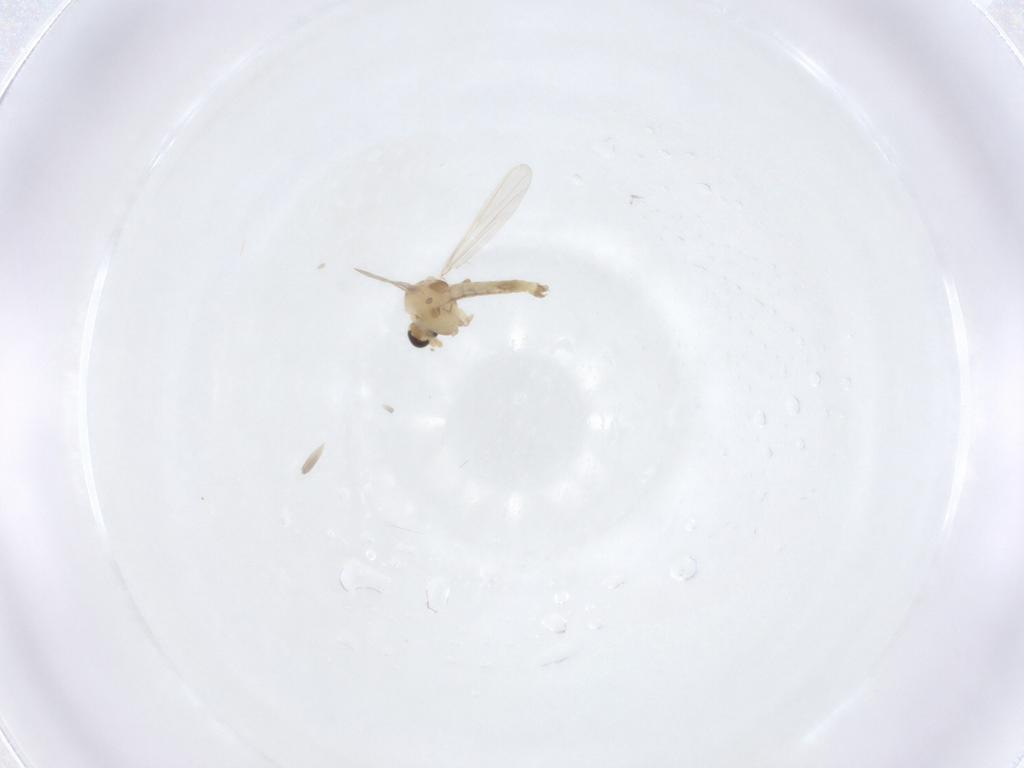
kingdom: Animalia
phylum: Arthropoda
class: Insecta
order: Diptera
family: Chironomidae
